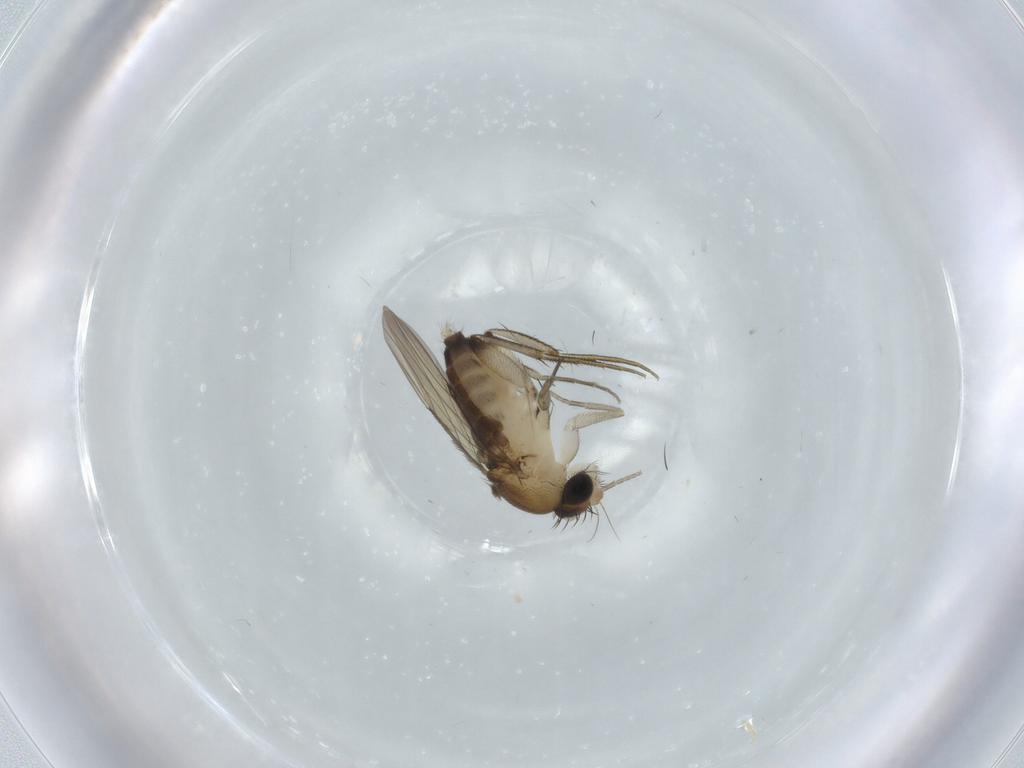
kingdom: Animalia
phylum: Arthropoda
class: Insecta
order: Diptera
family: Phoridae
